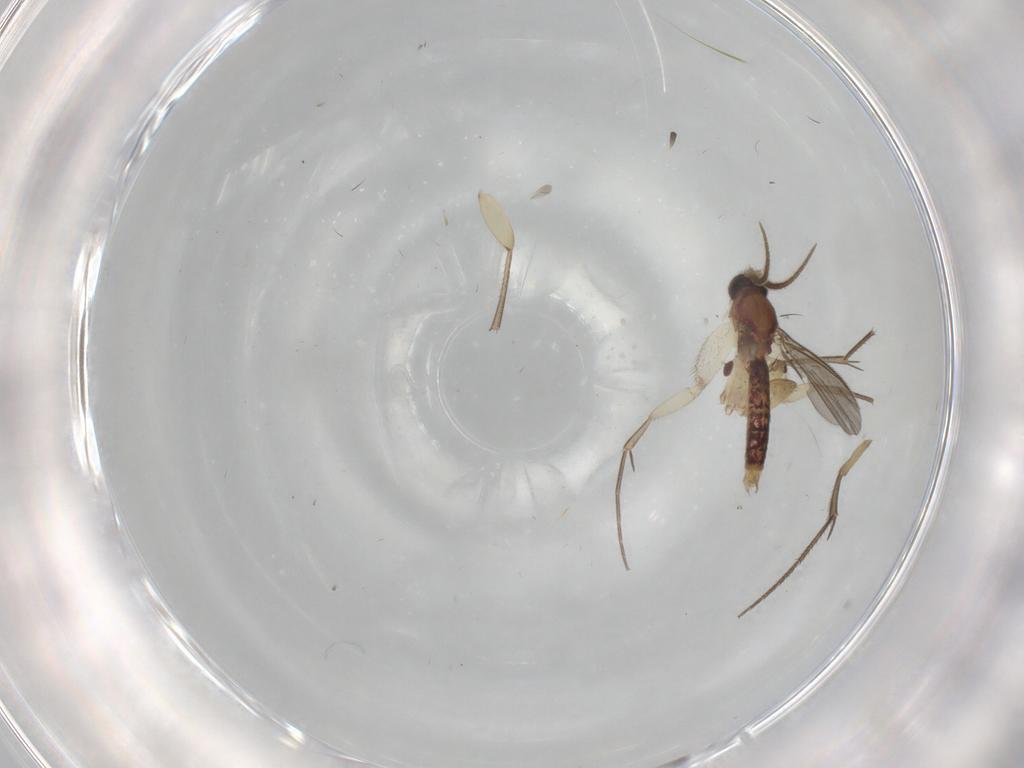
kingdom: Animalia
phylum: Arthropoda
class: Insecta
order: Diptera
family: Mycetophilidae
